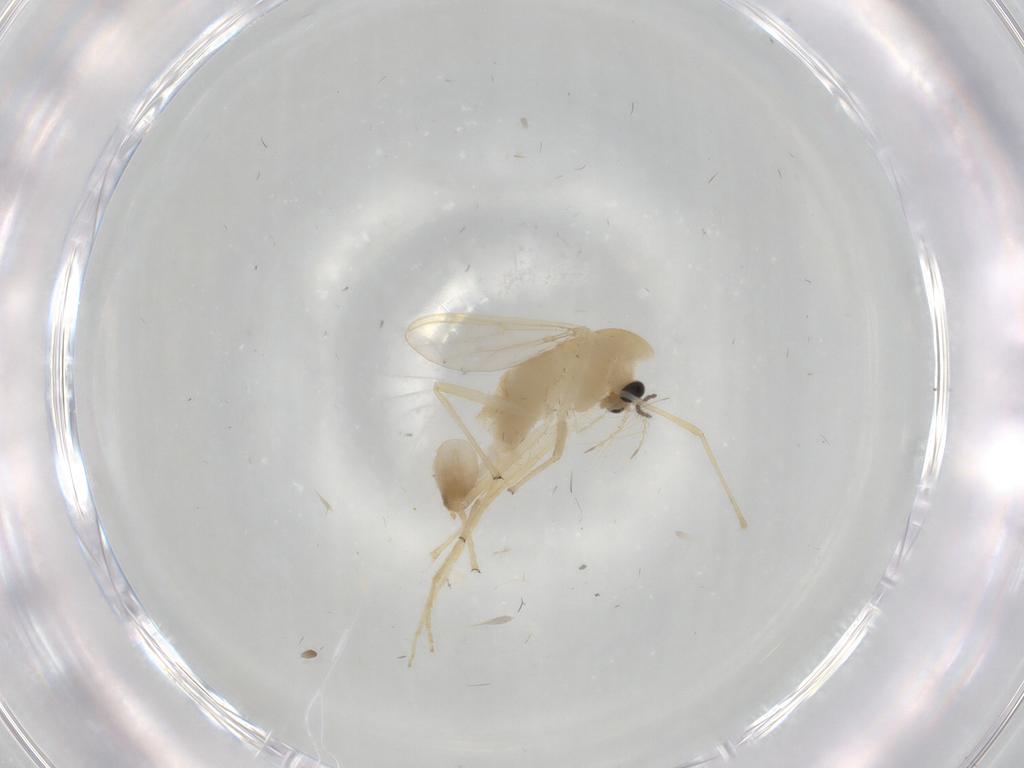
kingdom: Animalia
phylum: Arthropoda
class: Insecta
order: Diptera
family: Chironomidae
